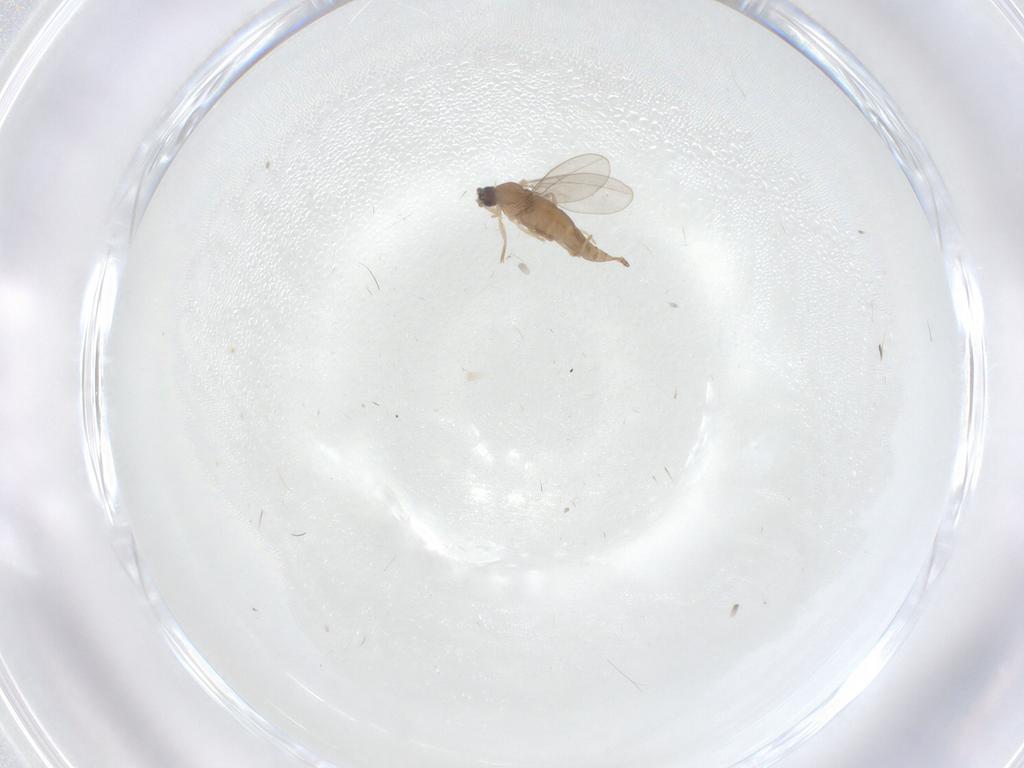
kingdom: Animalia
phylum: Arthropoda
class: Insecta
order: Diptera
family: Cecidomyiidae
